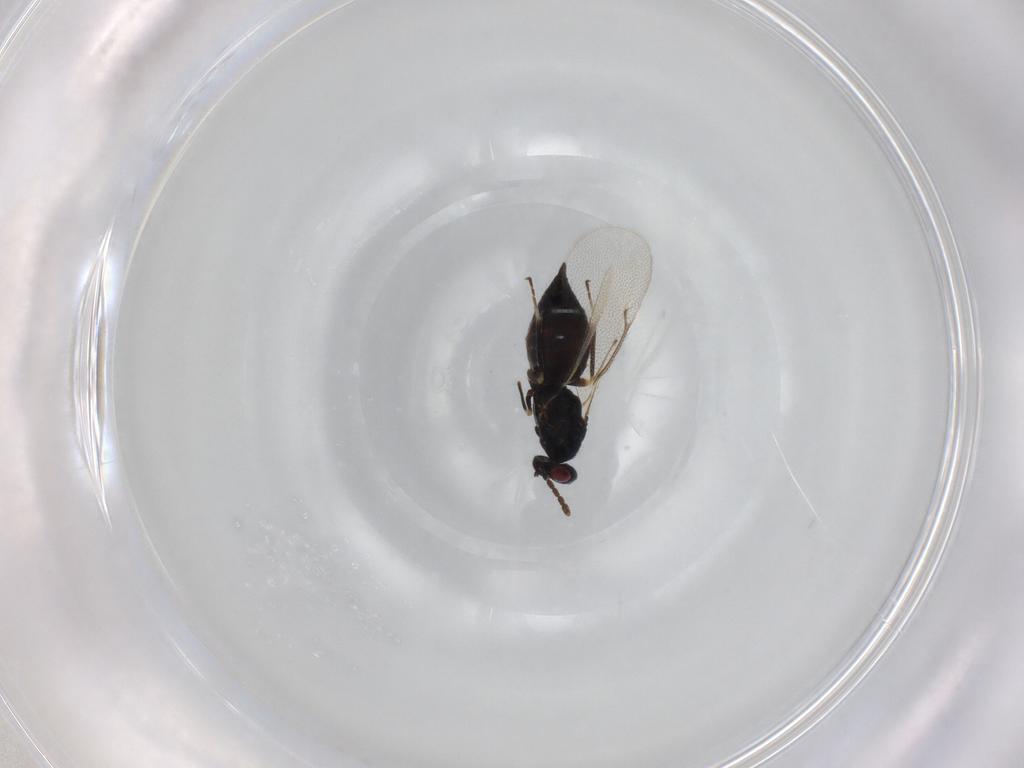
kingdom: Animalia
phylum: Arthropoda
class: Insecta
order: Hymenoptera
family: Eulophidae
